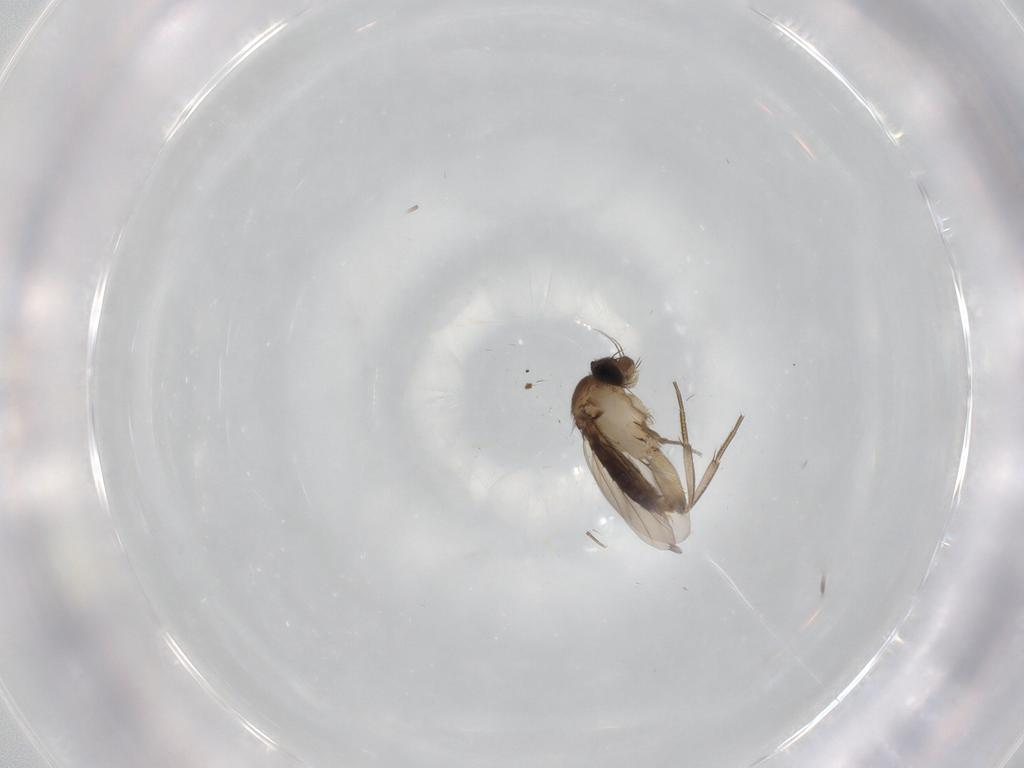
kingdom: Animalia
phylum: Arthropoda
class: Insecta
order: Diptera
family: Phoridae
